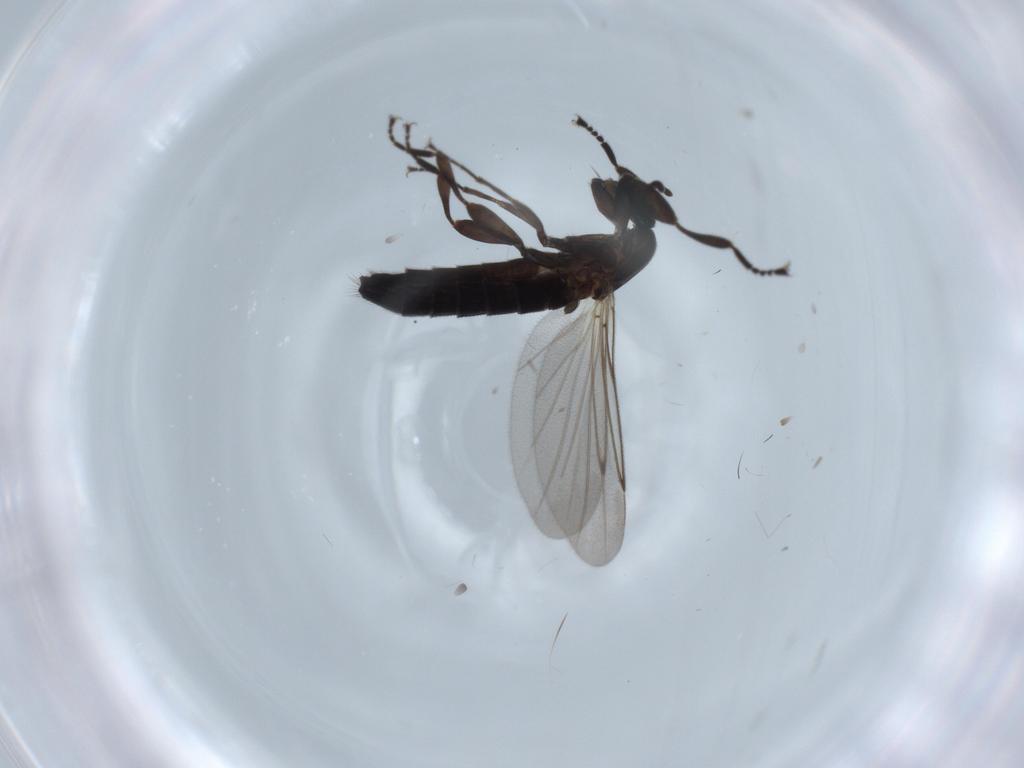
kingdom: Animalia
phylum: Arthropoda
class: Insecta
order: Diptera
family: Scatopsidae
